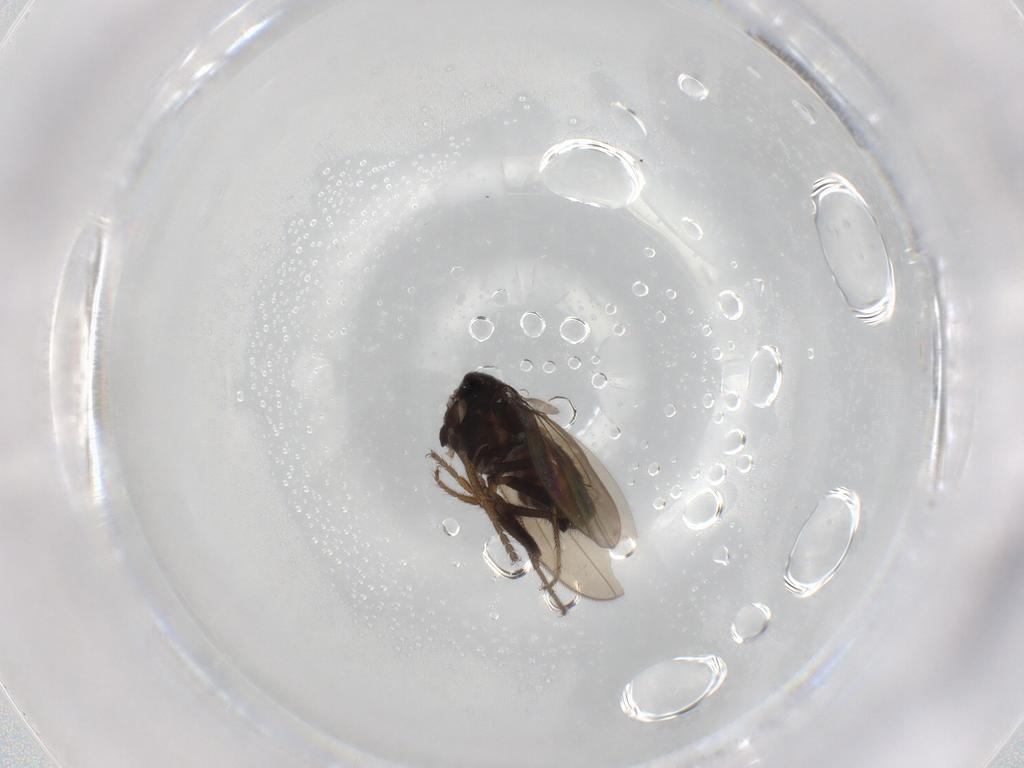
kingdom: Animalia
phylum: Arthropoda
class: Insecta
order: Diptera
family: Sphaeroceridae
